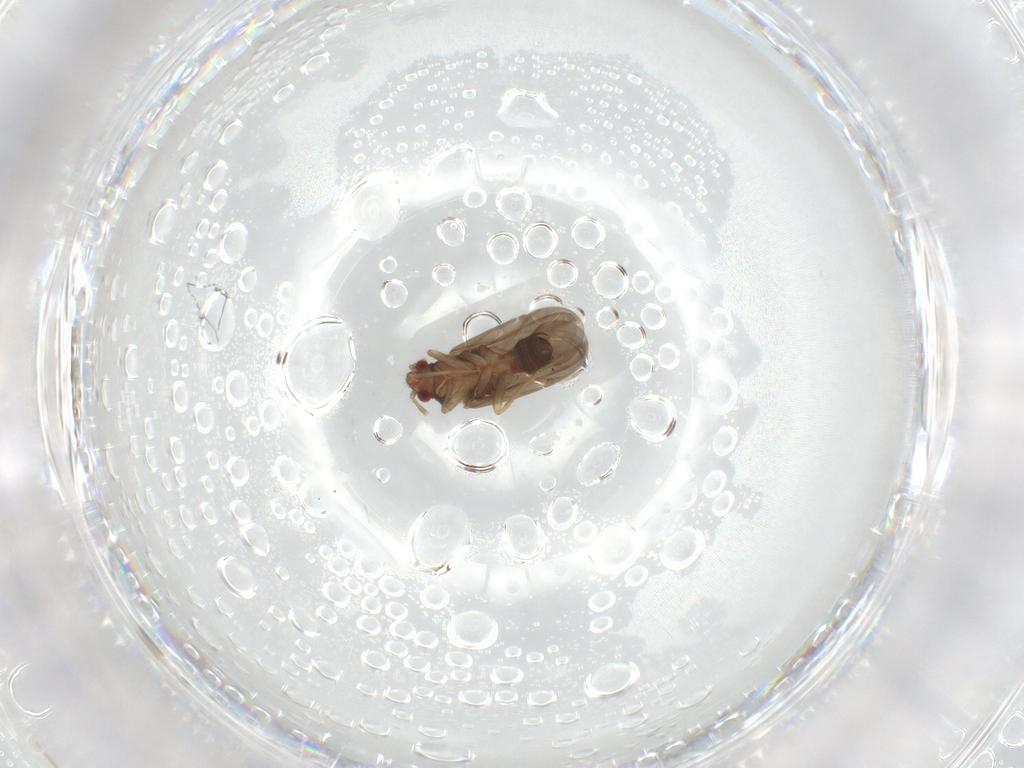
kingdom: Animalia
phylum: Arthropoda
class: Insecta
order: Hemiptera
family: Ceratocombidae
